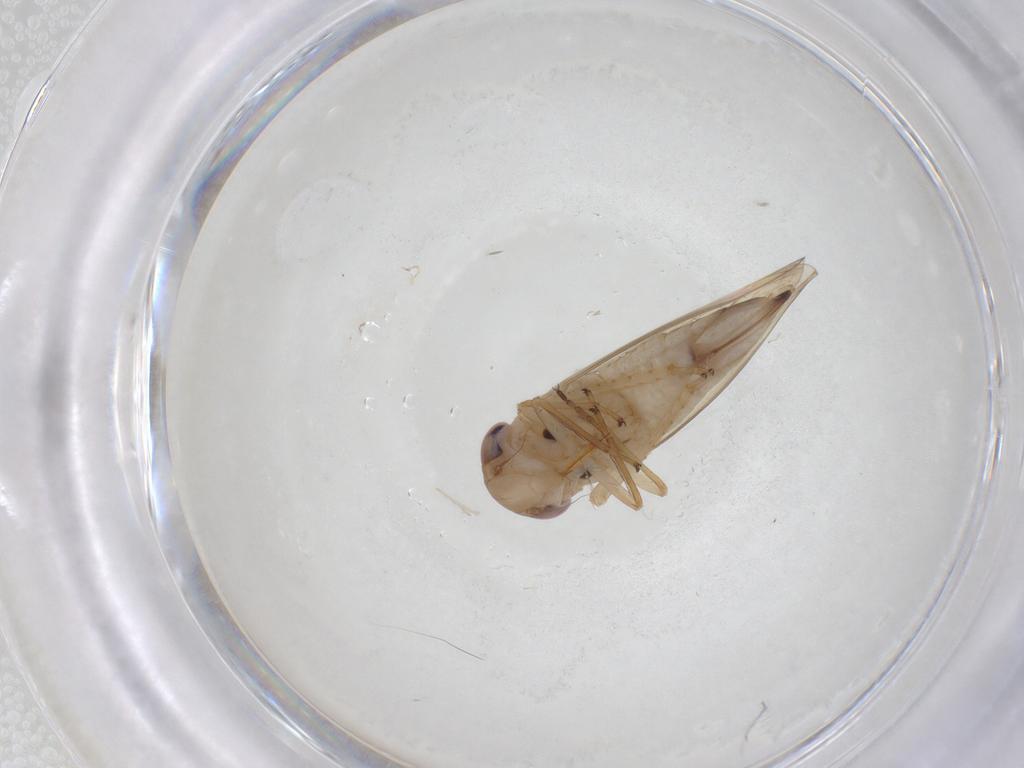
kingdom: Animalia
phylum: Arthropoda
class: Insecta
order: Hemiptera
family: Cicadellidae
